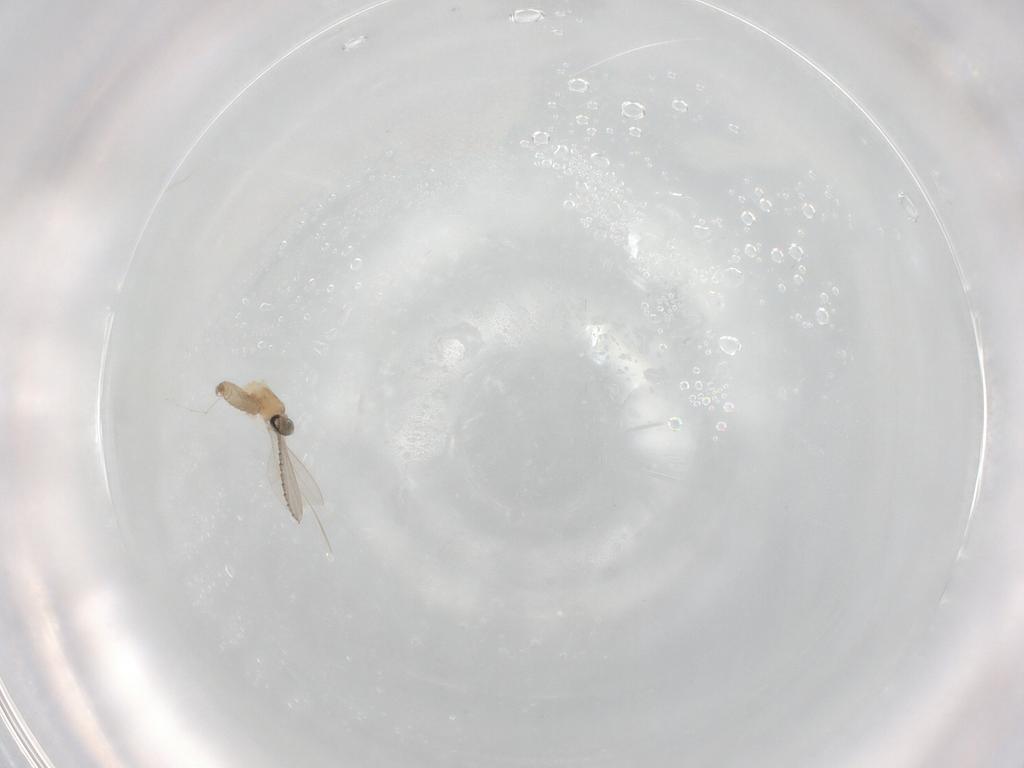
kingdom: Animalia
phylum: Arthropoda
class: Insecta
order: Diptera
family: Cecidomyiidae
